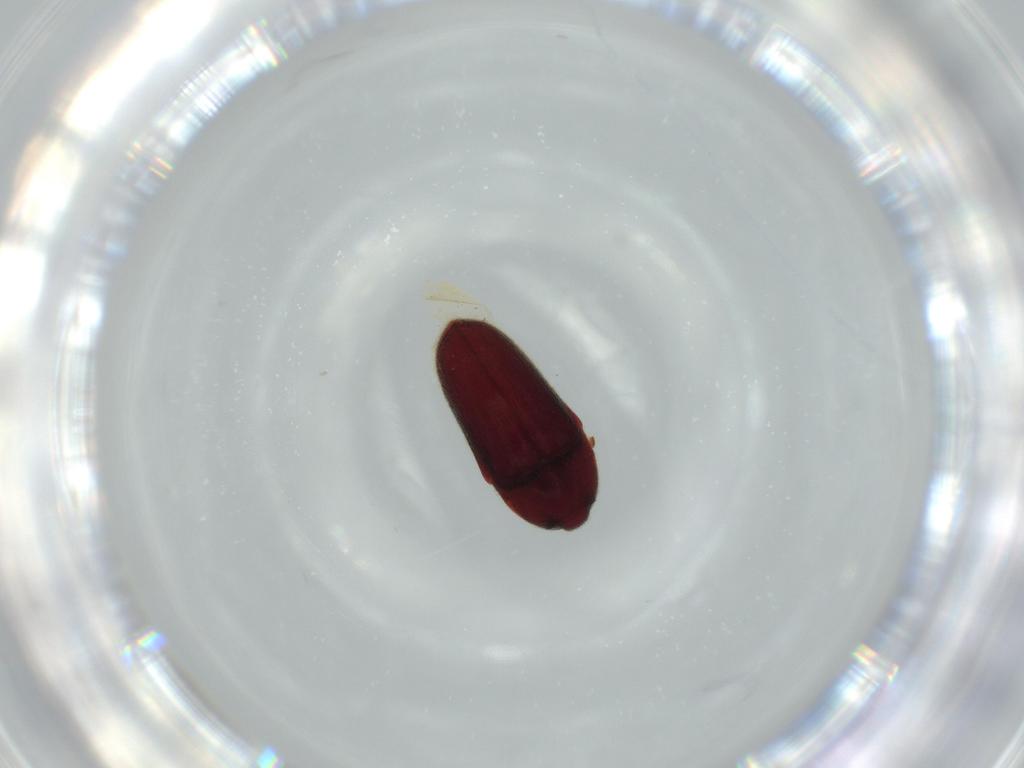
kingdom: Animalia
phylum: Arthropoda
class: Insecta
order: Coleoptera
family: Throscidae
